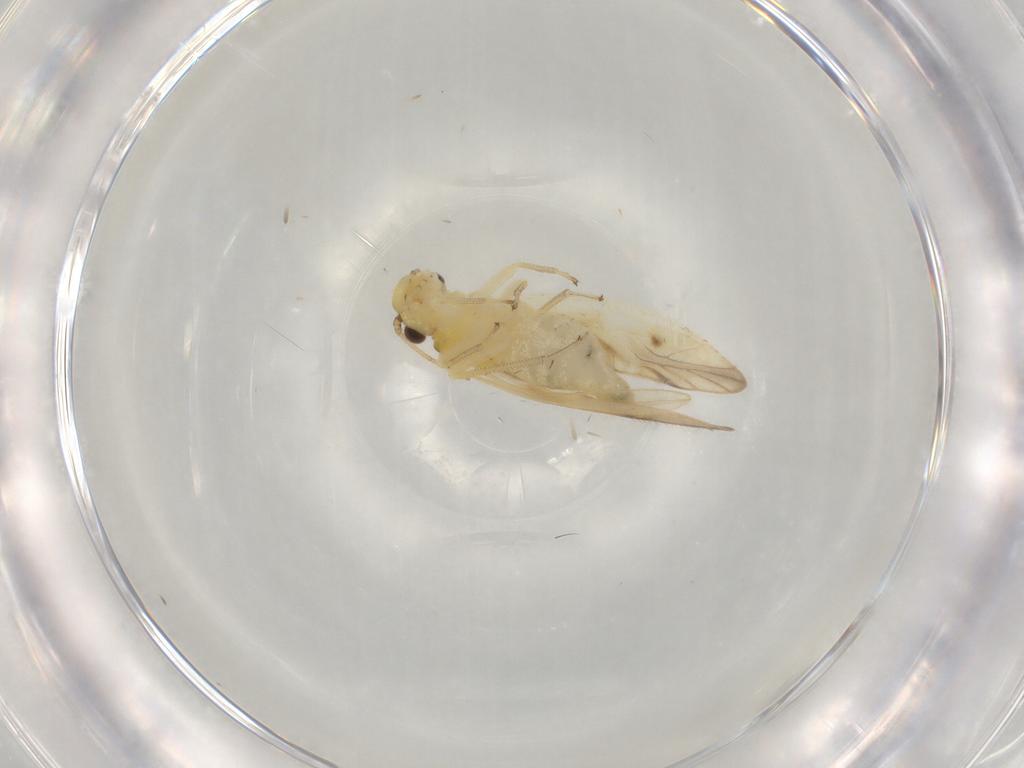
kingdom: Animalia
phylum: Arthropoda
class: Insecta
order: Psocodea
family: Caeciliusidae
